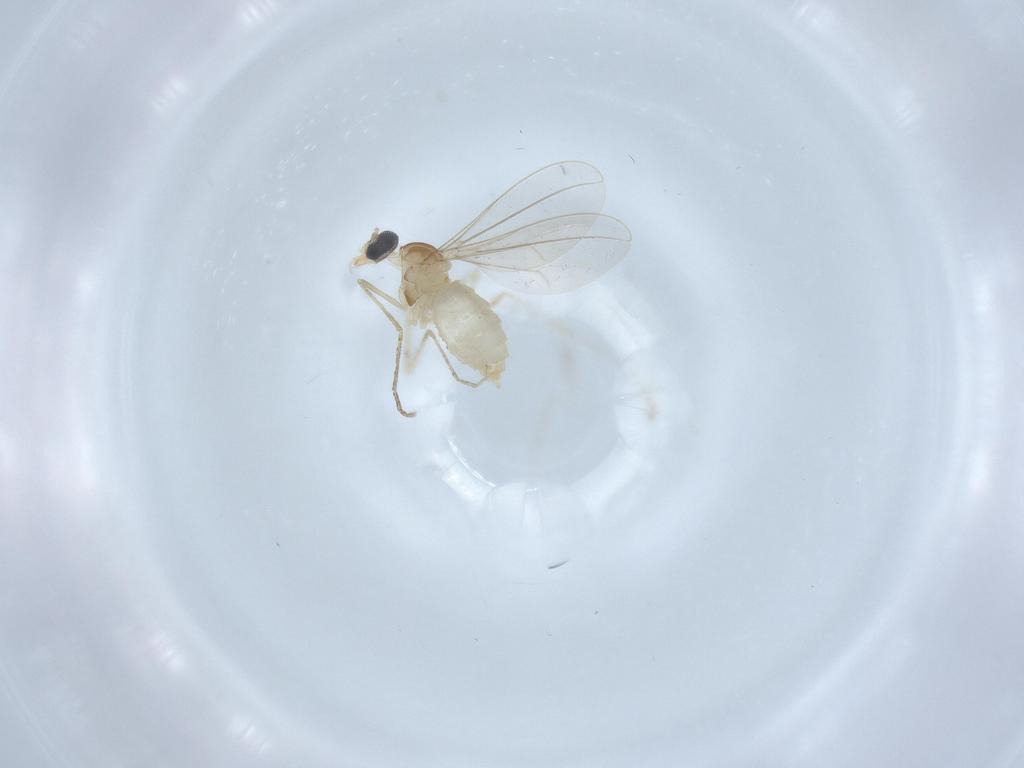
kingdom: Animalia
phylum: Arthropoda
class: Insecta
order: Diptera
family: Cecidomyiidae
